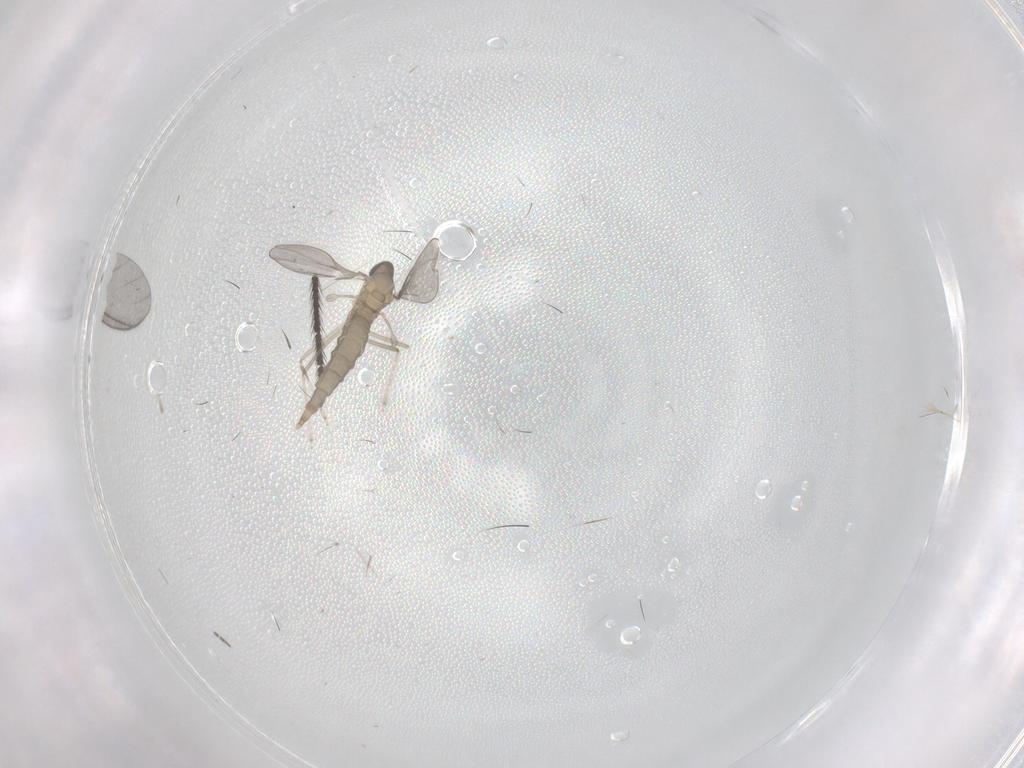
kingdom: Animalia
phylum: Arthropoda
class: Insecta
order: Diptera
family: Cecidomyiidae
